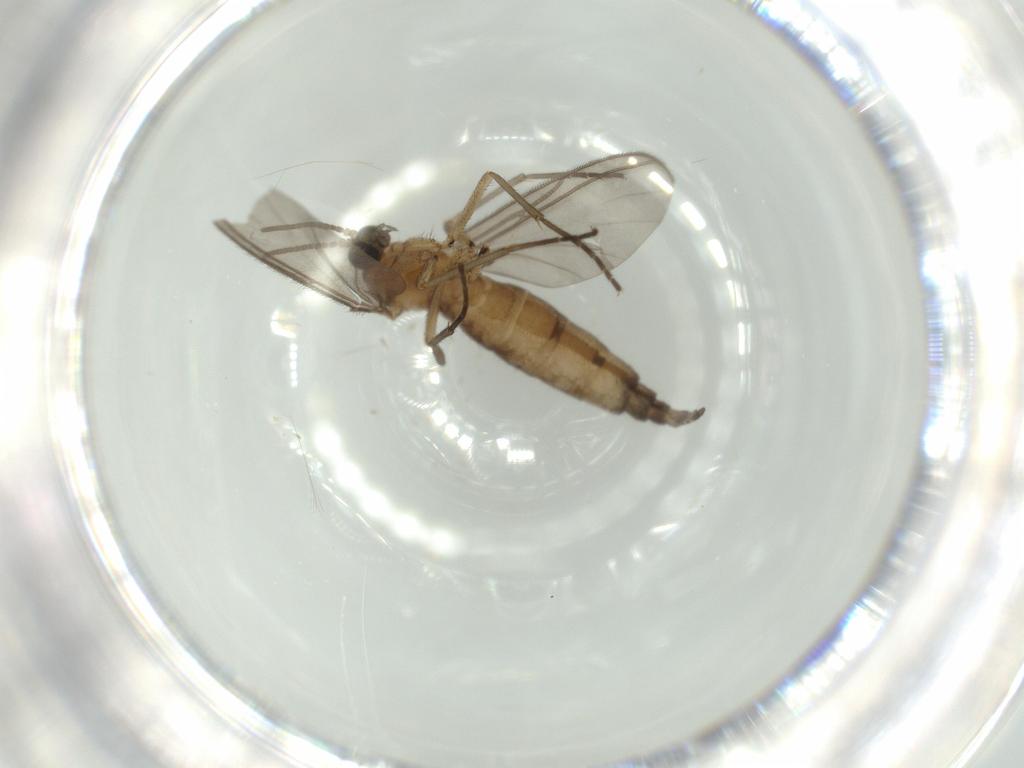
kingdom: Animalia
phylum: Arthropoda
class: Insecta
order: Diptera
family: Sciaridae
